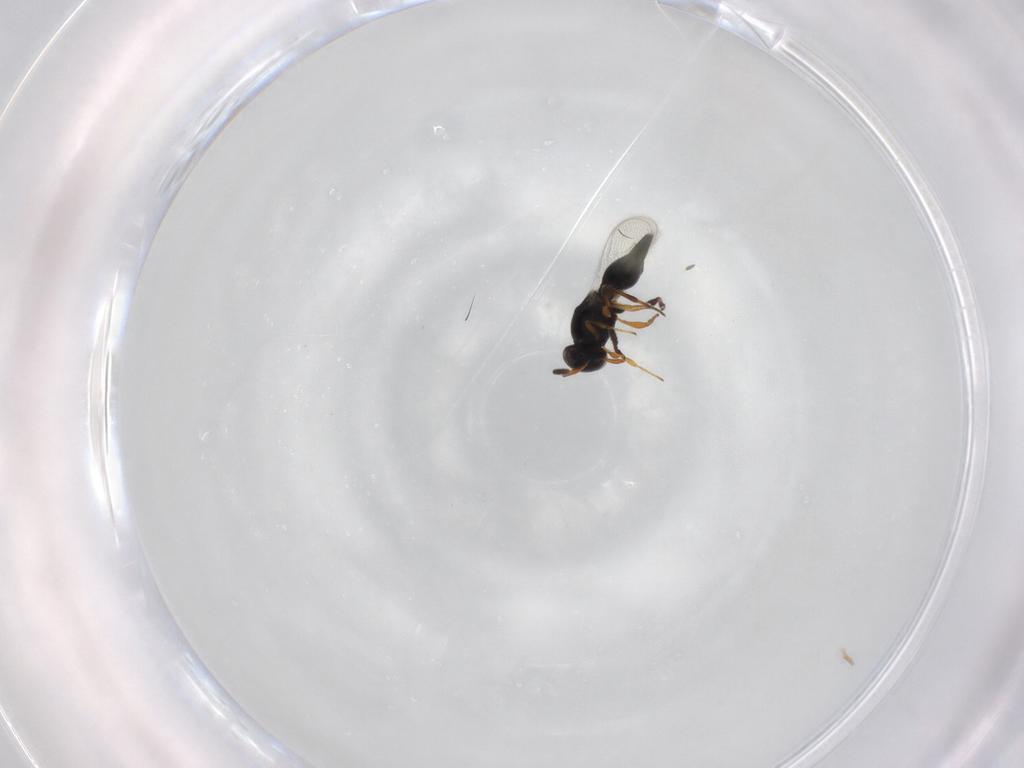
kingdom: Animalia
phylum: Arthropoda
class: Insecta
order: Hymenoptera
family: Platygastridae
